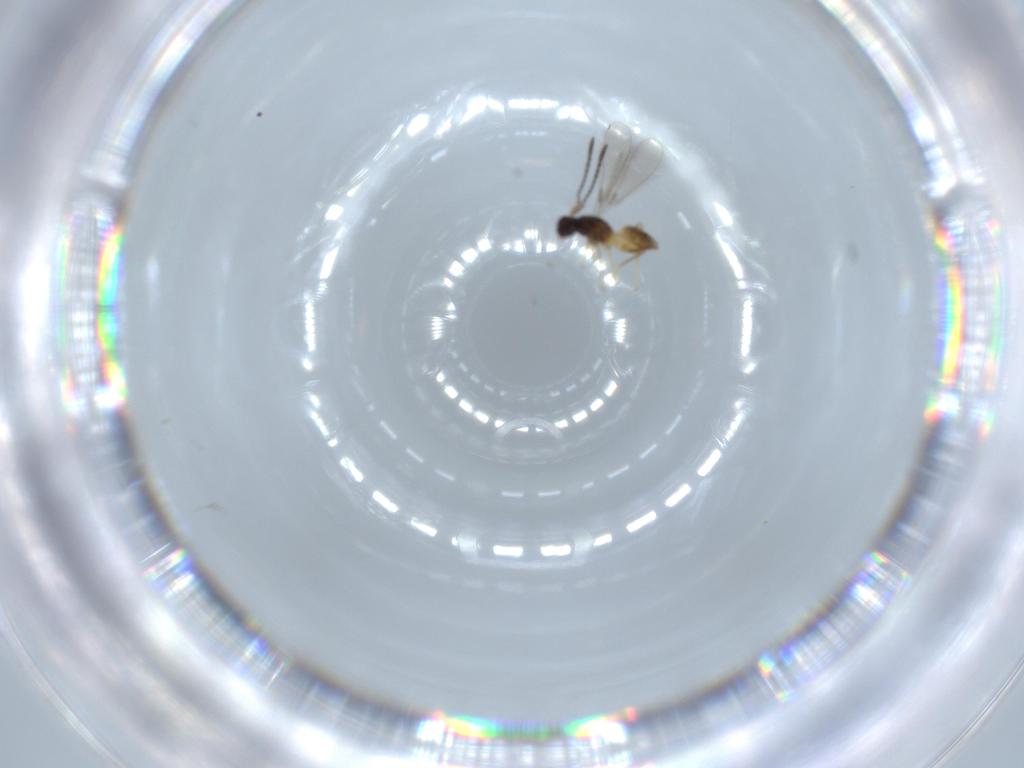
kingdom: Animalia
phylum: Arthropoda
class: Insecta
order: Hymenoptera
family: Mymaridae
